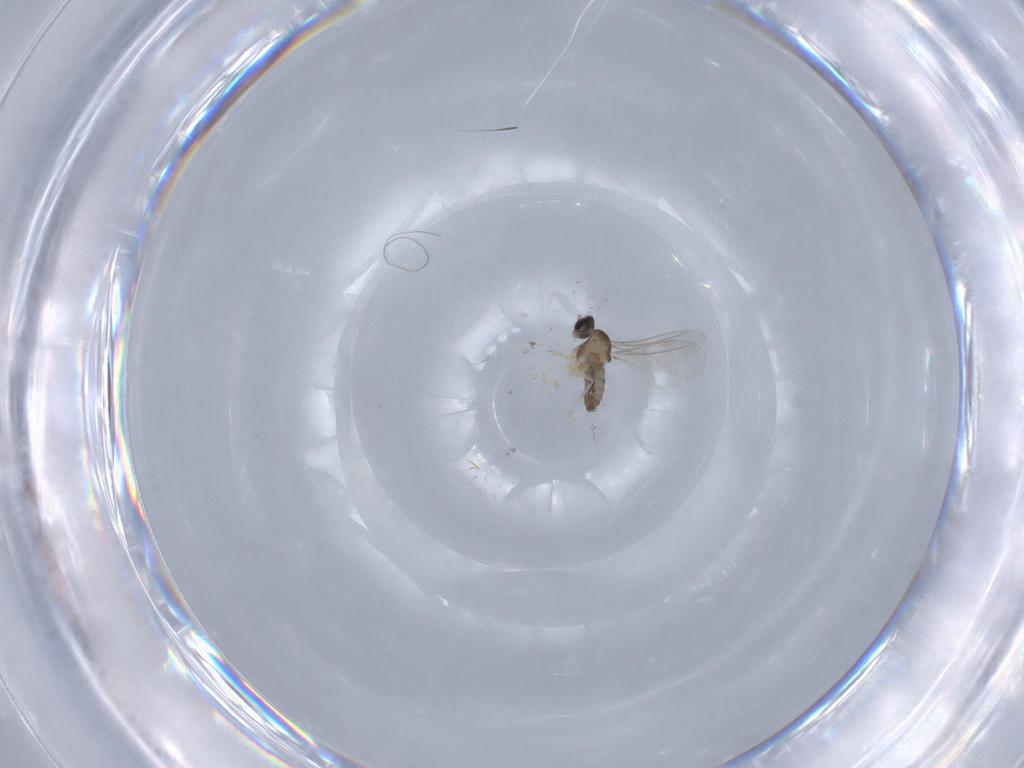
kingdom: Animalia
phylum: Arthropoda
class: Insecta
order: Diptera
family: Cecidomyiidae
